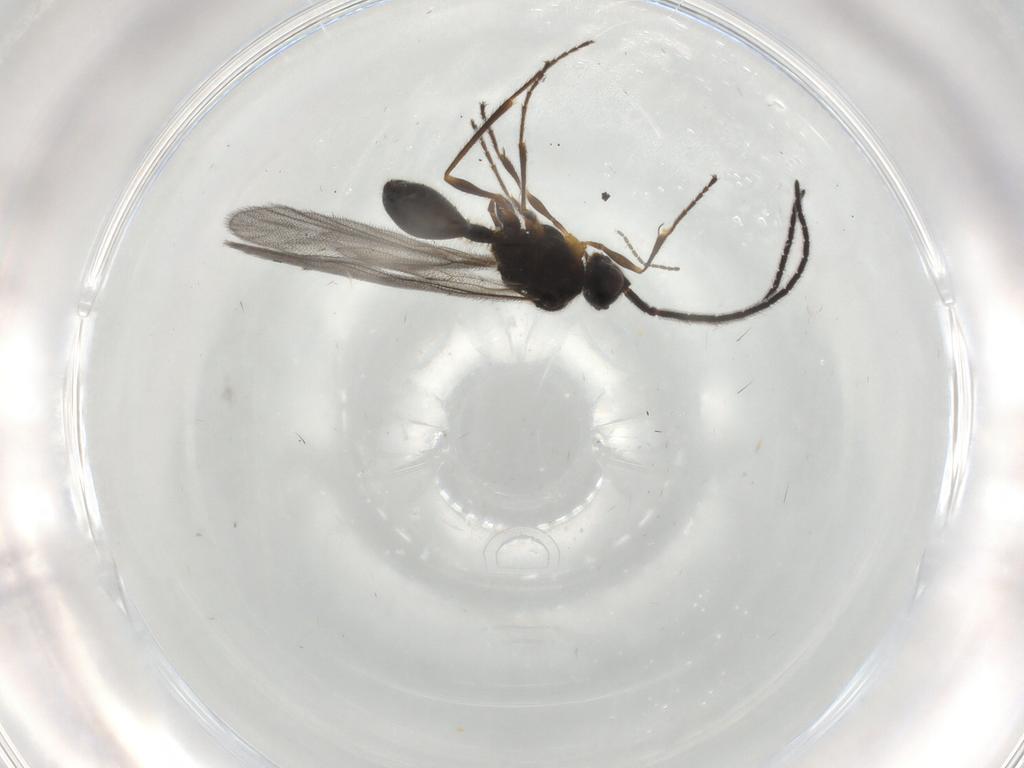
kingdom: Animalia
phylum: Arthropoda
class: Insecta
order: Hymenoptera
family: Diapriidae
